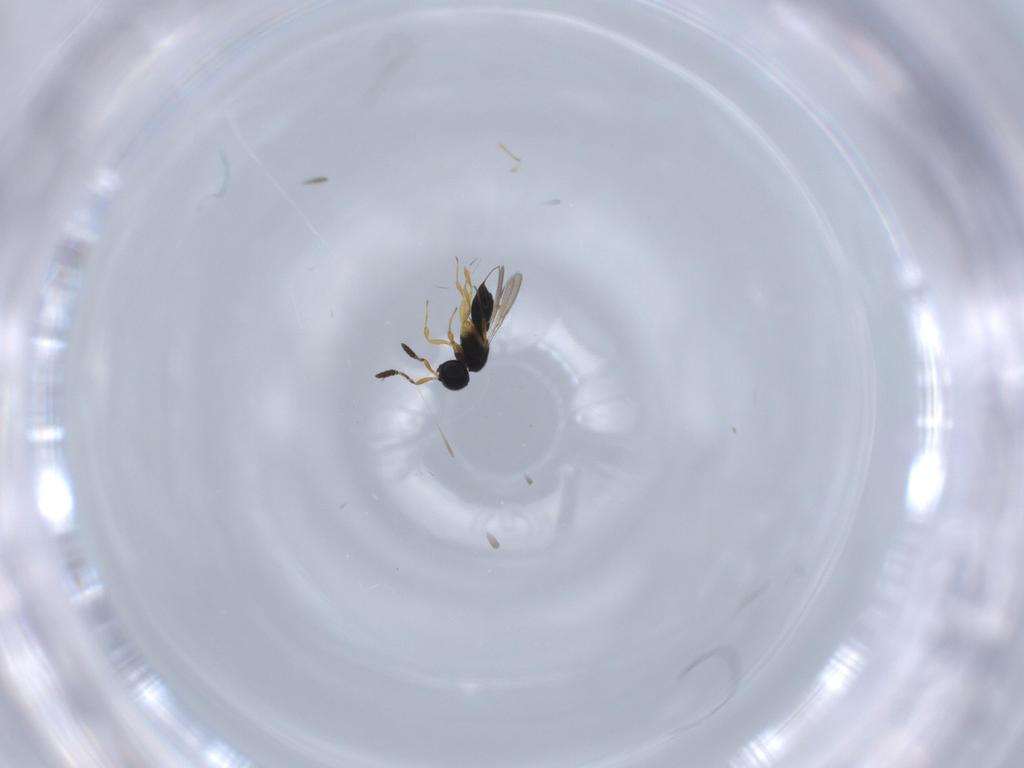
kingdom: Animalia
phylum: Arthropoda
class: Insecta
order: Hymenoptera
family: Scelionidae
